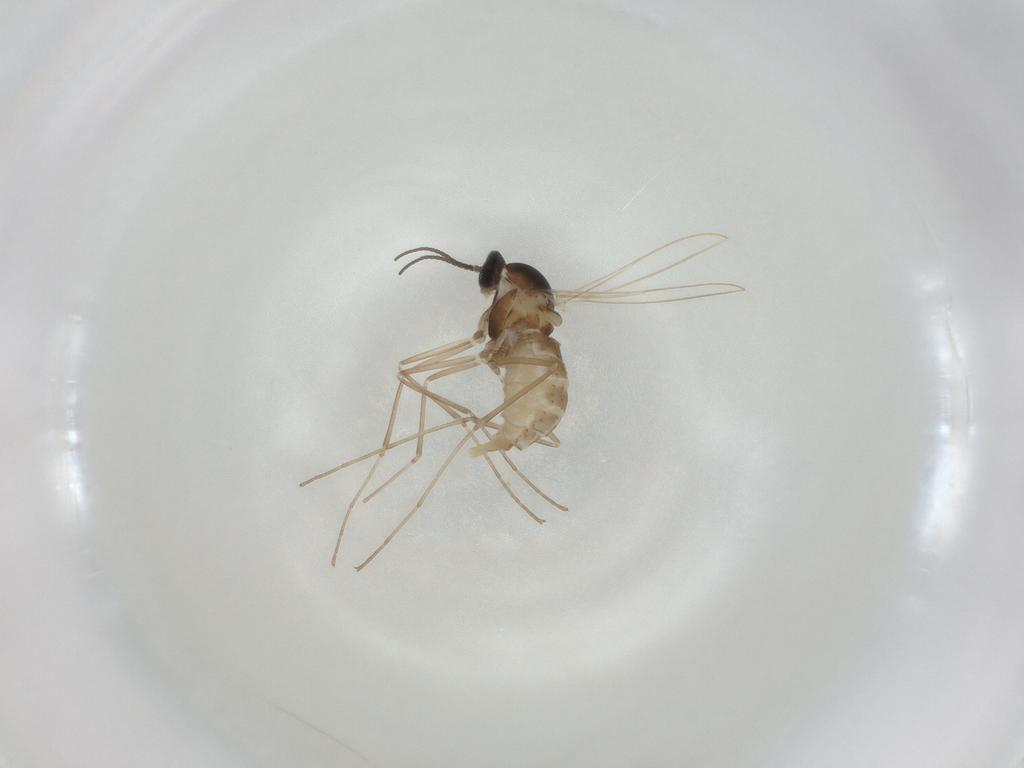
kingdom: Animalia
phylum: Arthropoda
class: Insecta
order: Diptera
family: Cecidomyiidae
